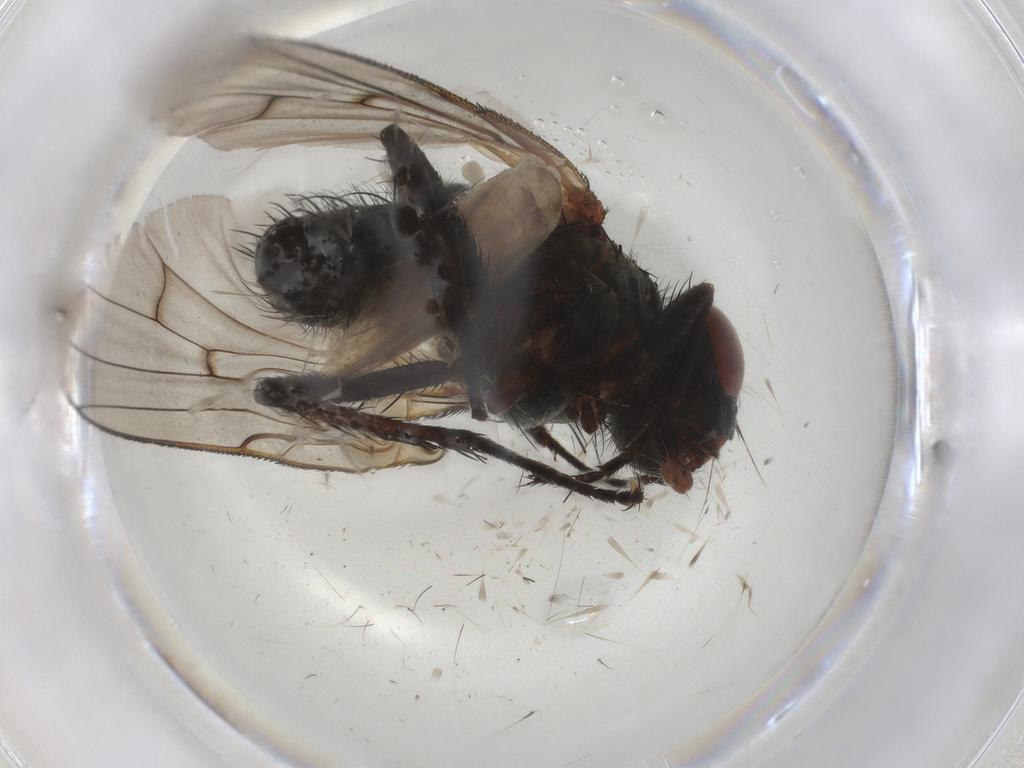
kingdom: Animalia
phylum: Arthropoda
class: Insecta
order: Diptera
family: Anthomyiidae
